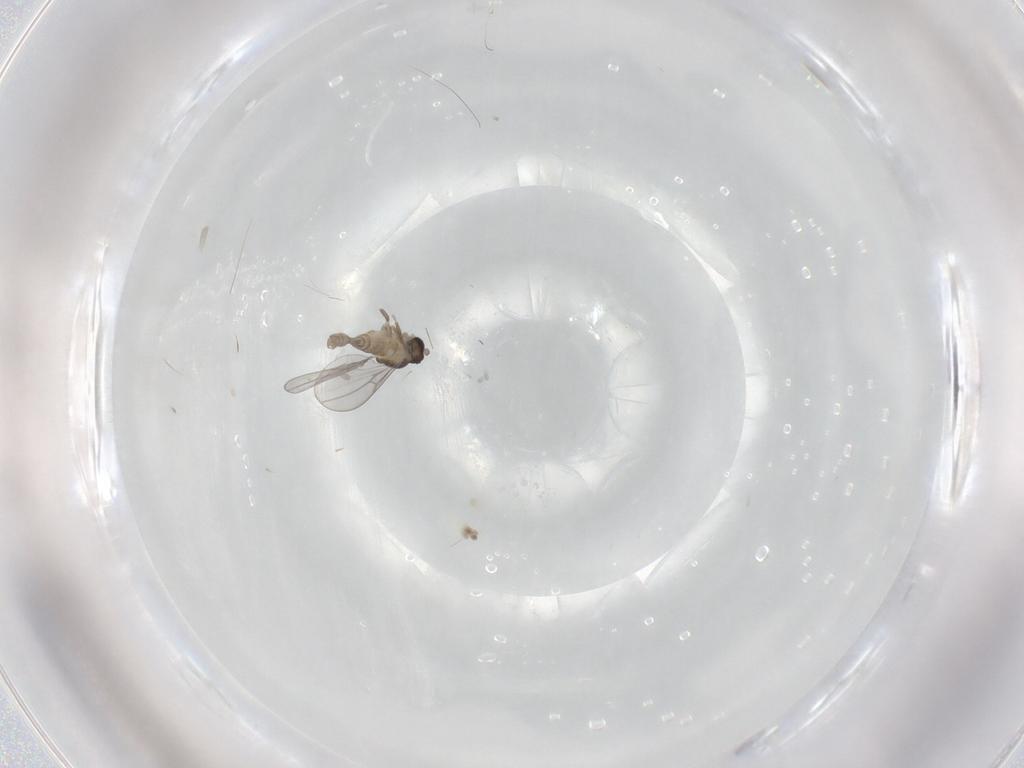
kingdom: Animalia
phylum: Arthropoda
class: Insecta
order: Diptera
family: Cecidomyiidae
